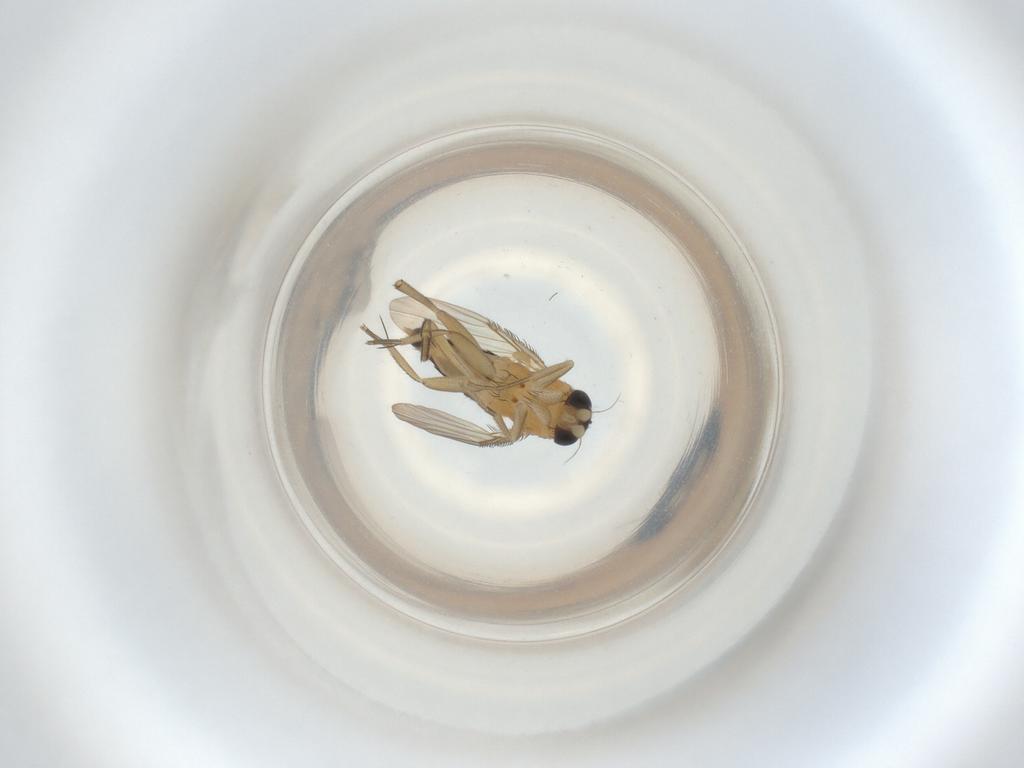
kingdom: Animalia
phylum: Arthropoda
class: Insecta
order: Diptera
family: Phoridae
